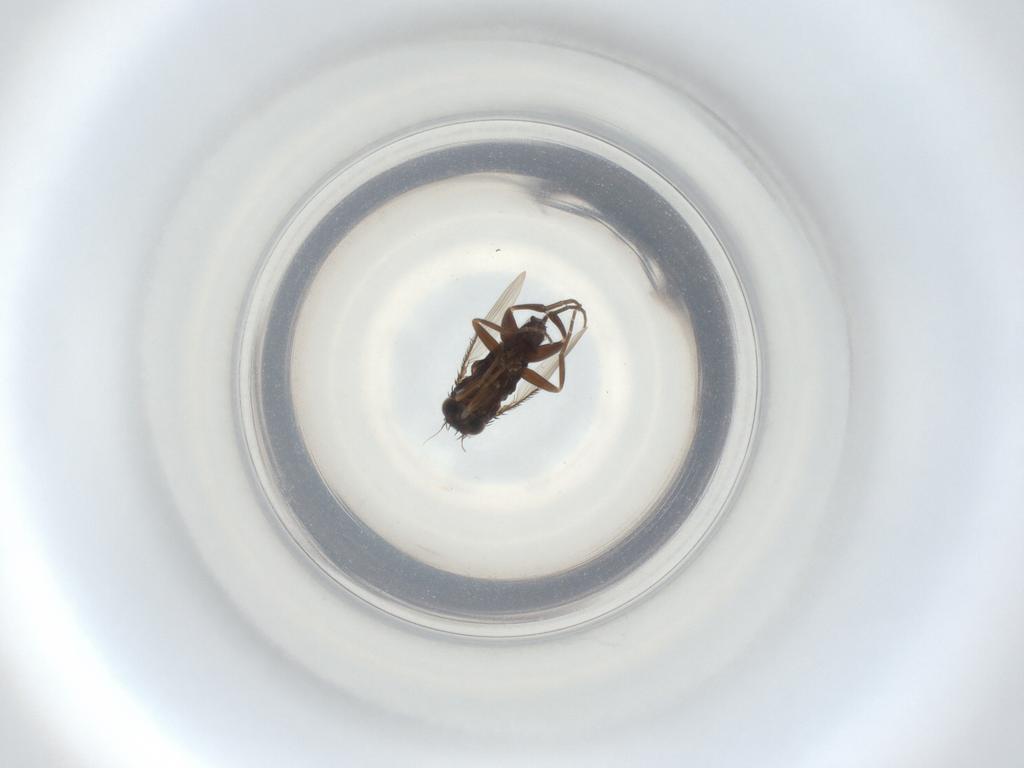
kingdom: Animalia
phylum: Arthropoda
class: Insecta
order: Diptera
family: Phoridae
